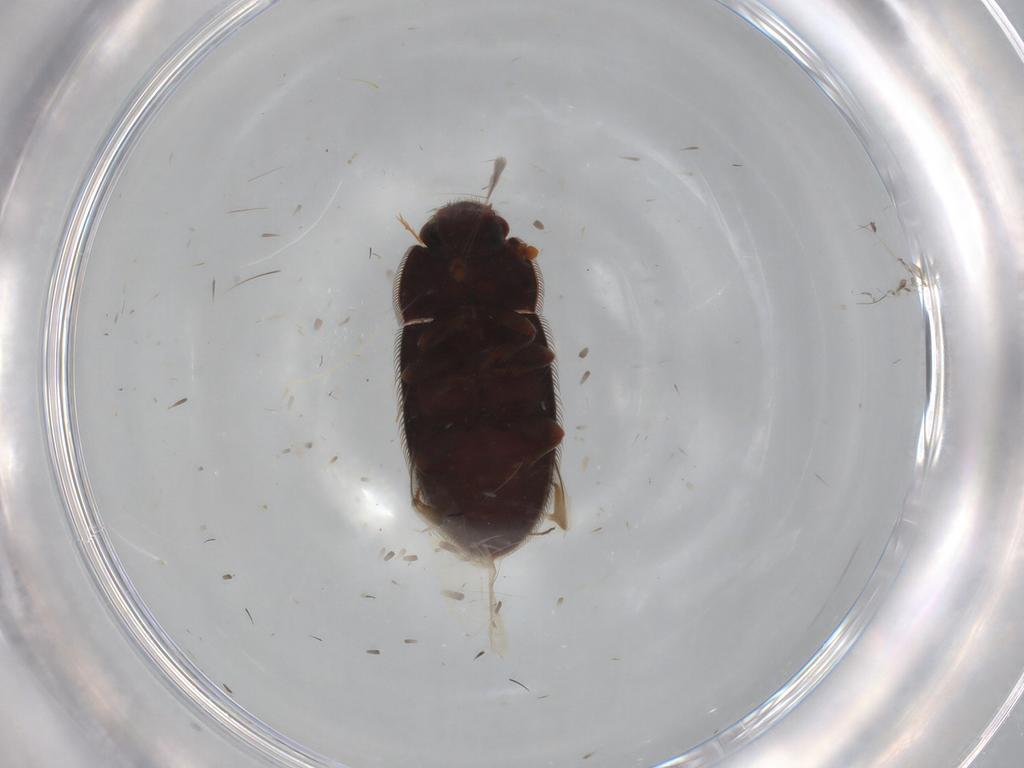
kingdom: Animalia
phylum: Arthropoda
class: Insecta
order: Coleoptera
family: Biphyllidae
